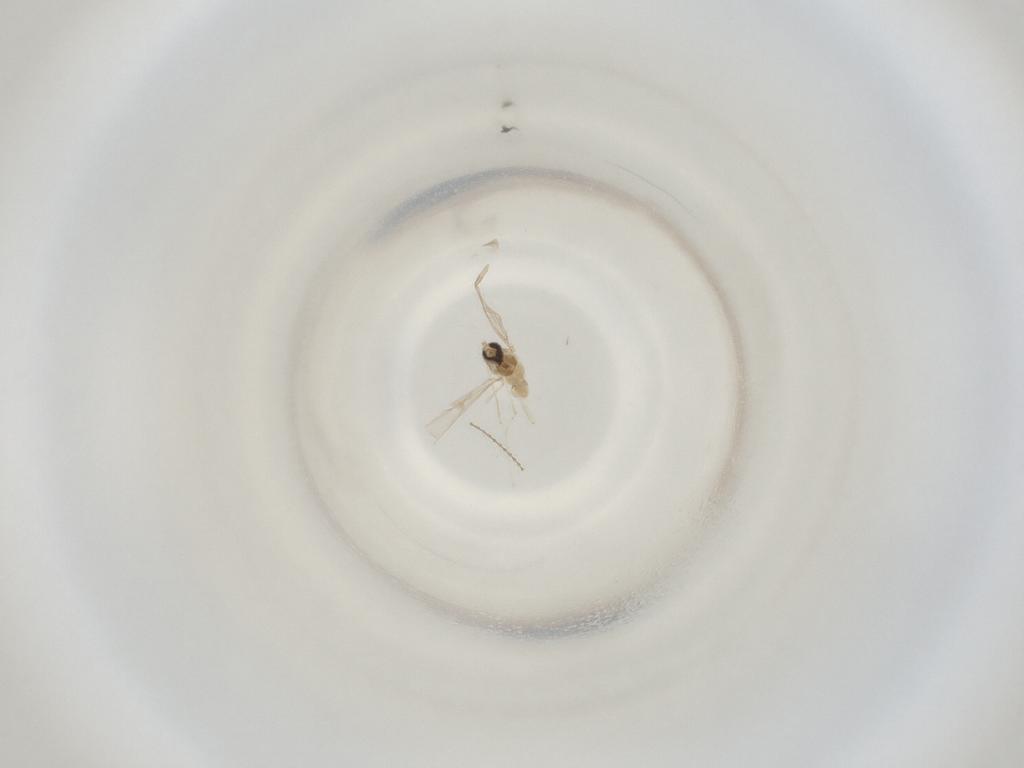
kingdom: Animalia
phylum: Arthropoda
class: Insecta
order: Diptera
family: Cecidomyiidae
